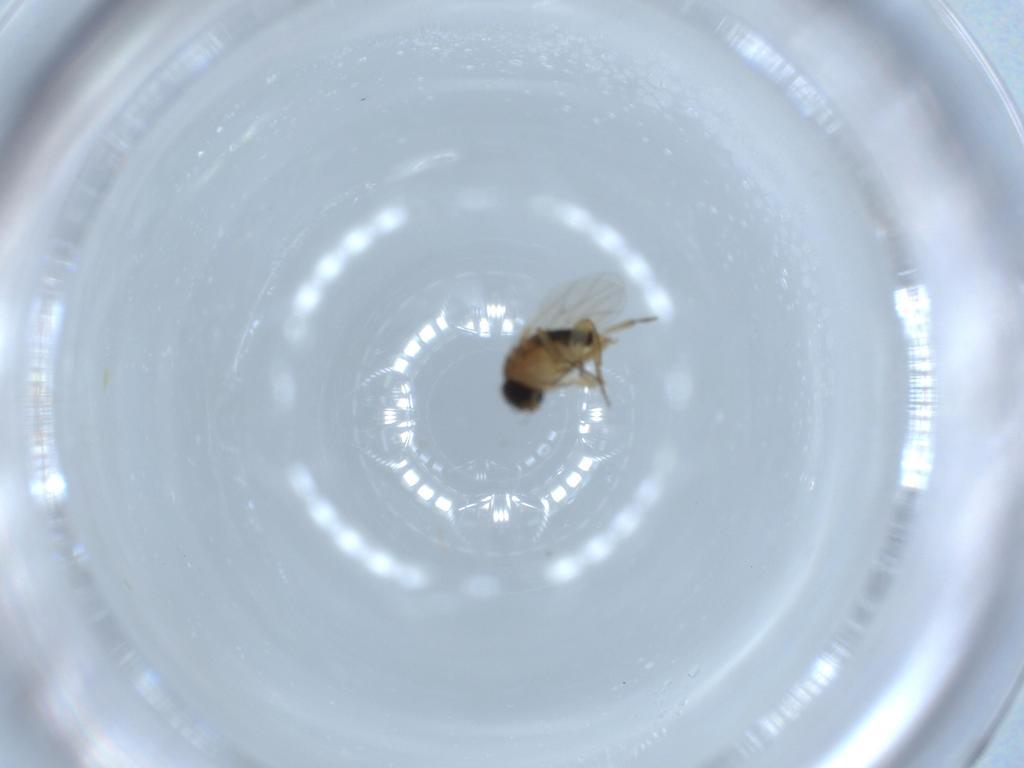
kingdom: Animalia
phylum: Arthropoda
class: Insecta
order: Diptera
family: Phoridae
